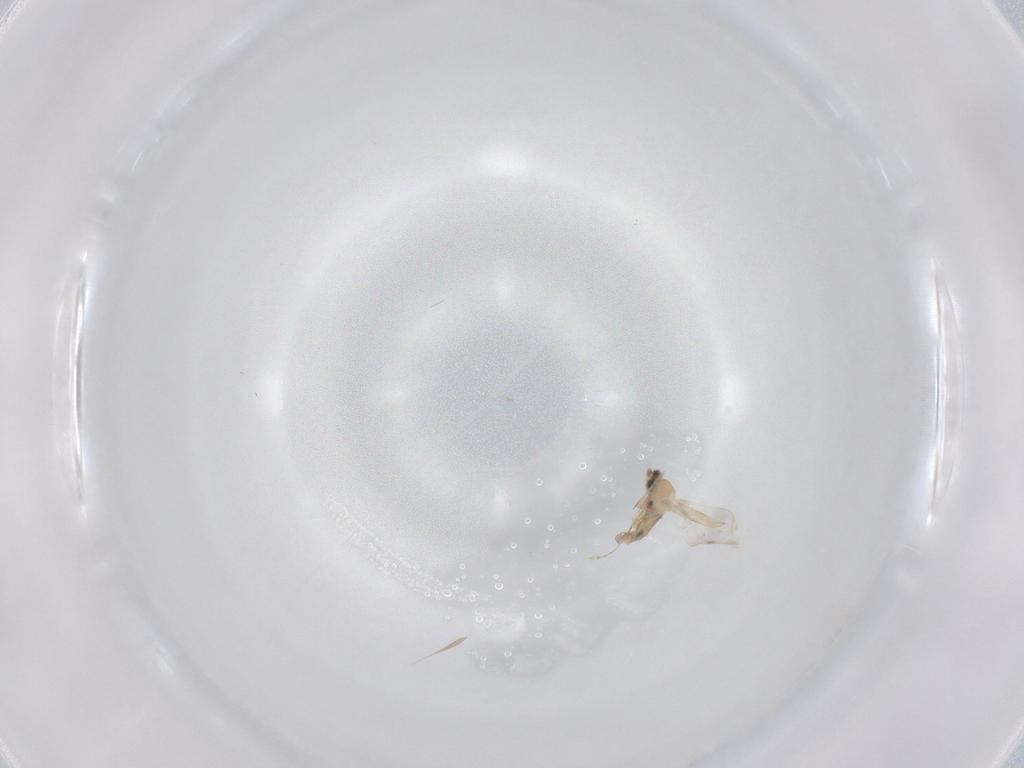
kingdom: Animalia
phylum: Arthropoda
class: Insecta
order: Diptera
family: Cecidomyiidae
